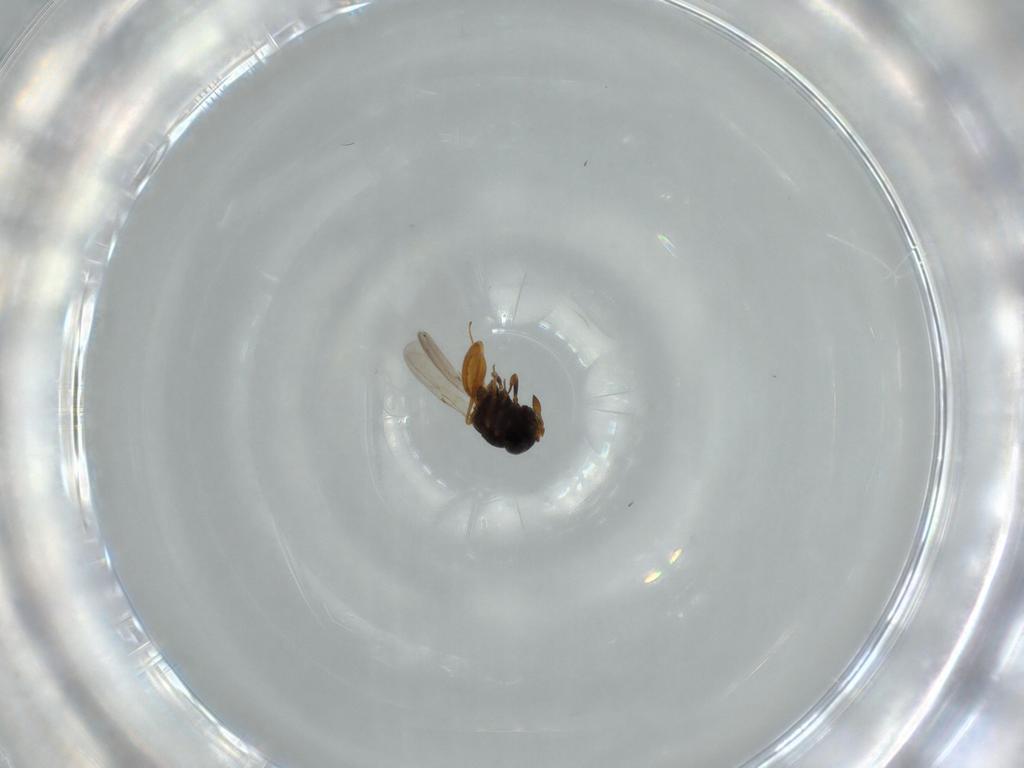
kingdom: Animalia
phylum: Arthropoda
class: Insecta
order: Hymenoptera
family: Scelionidae
